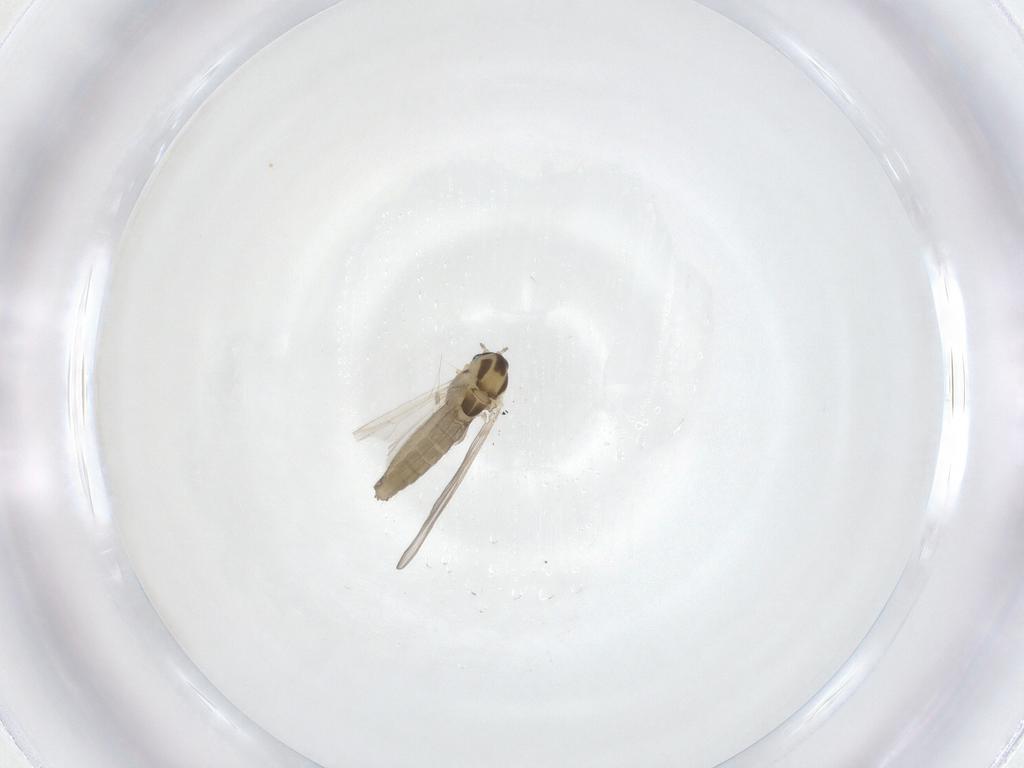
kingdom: Animalia
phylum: Arthropoda
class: Insecta
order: Diptera
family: Chironomidae
